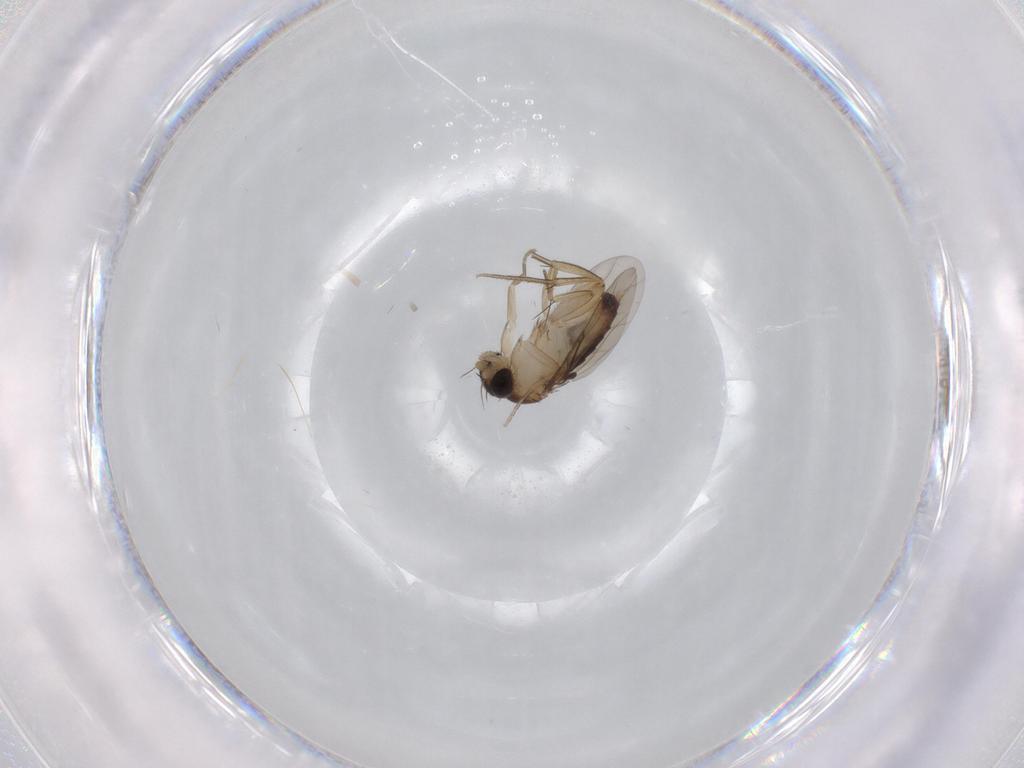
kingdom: Animalia
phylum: Arthropoda
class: Insecta
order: Diptera
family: Phoridae
